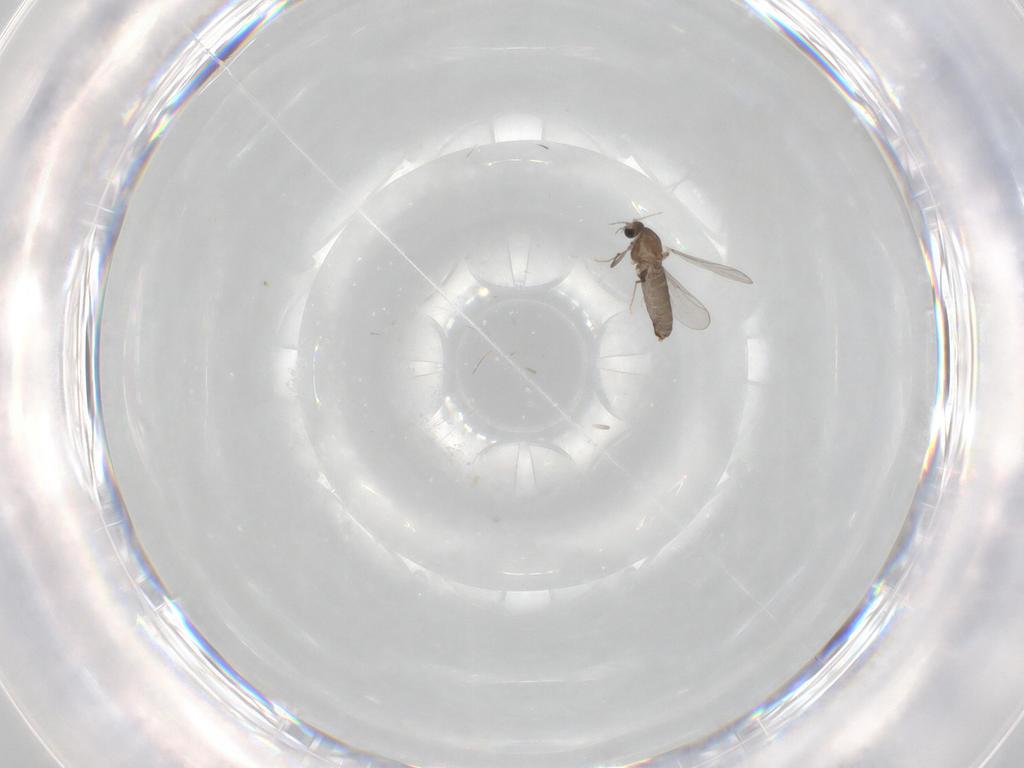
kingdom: Animalia
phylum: Arthropoda
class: Insecta
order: Diptera
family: Chironomidae
